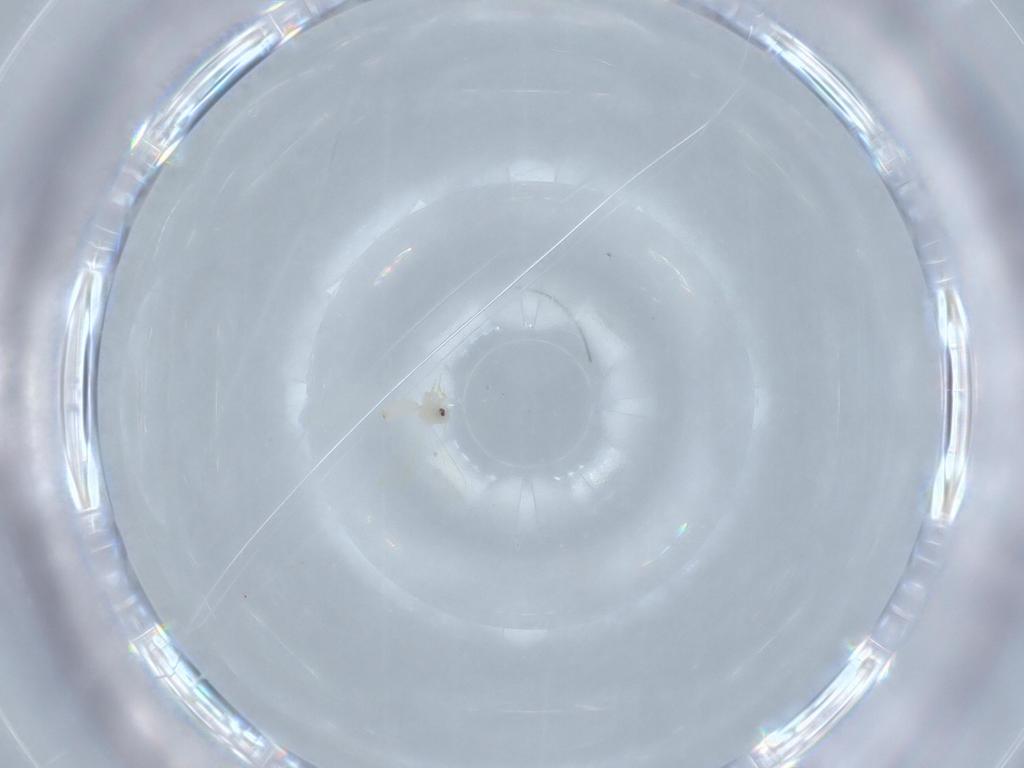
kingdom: Animalia
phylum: Arthropoda
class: Insecta
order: Hemiptera
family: Aleyrodidae
